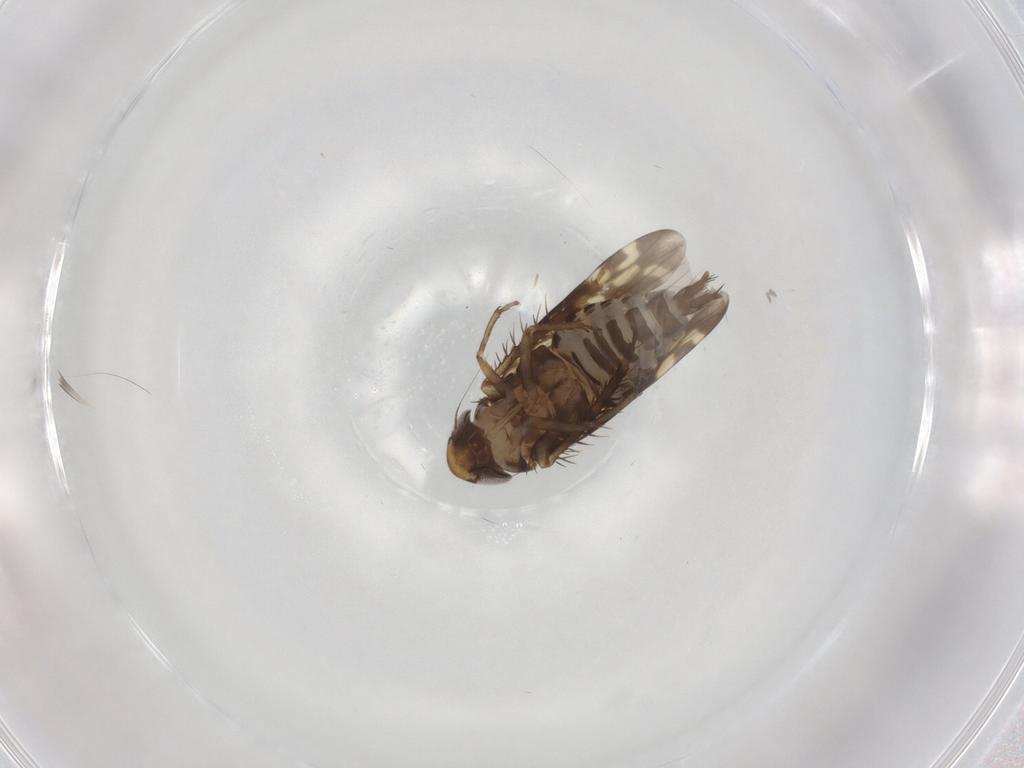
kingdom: Animalia
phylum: Arthropoda
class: Insecta
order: Hemiptera
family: Cicadellidae
